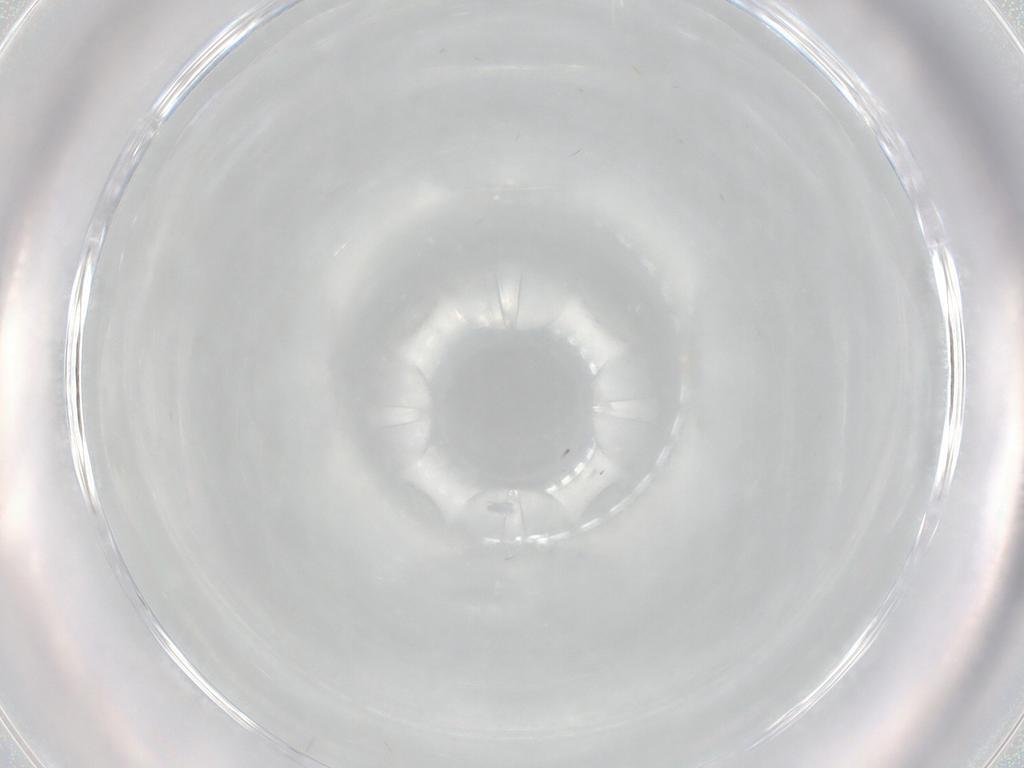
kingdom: Animalia
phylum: Arthropoda
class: Insecta
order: Diptera
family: Cecidomyiidae
